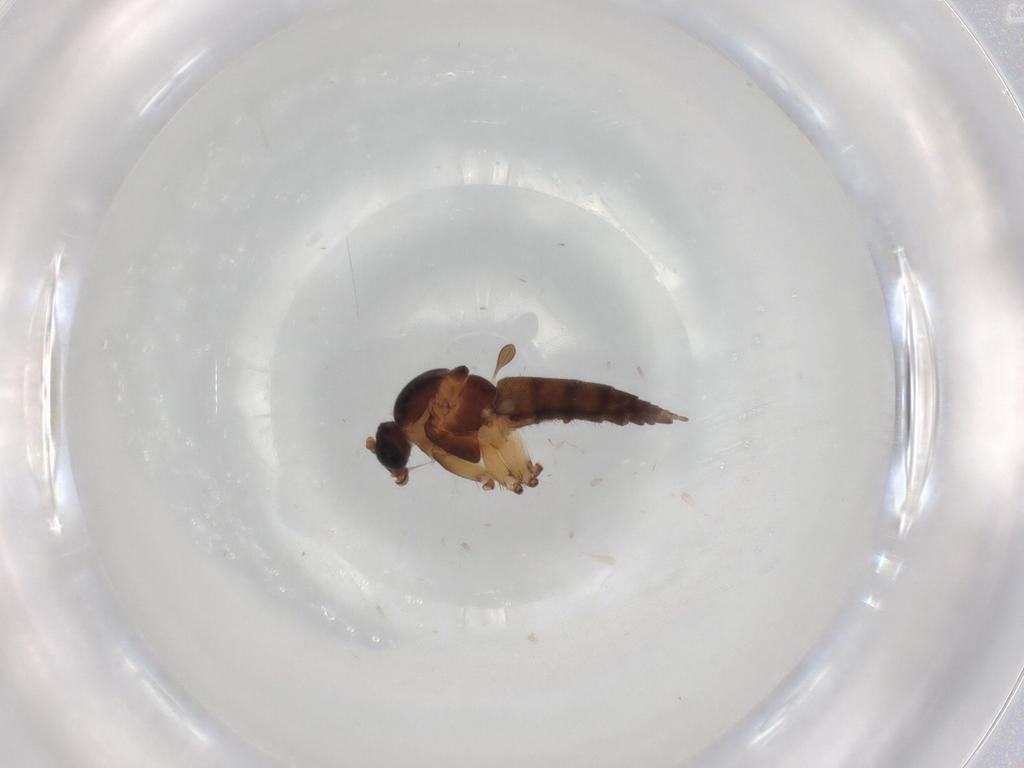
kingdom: Animalia
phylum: Arthropoda
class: Insecta
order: Diptera
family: Sciaridae
